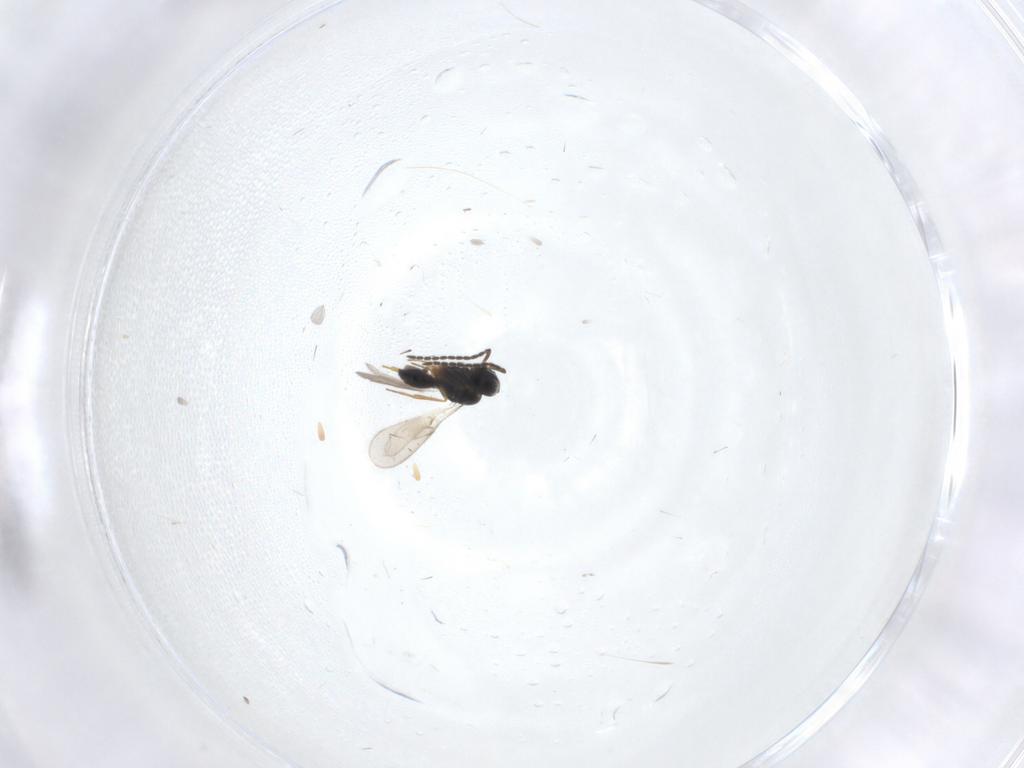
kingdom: Animalia
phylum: Arthropoda
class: Insecta
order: Hymenoptera
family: Scelionidae
